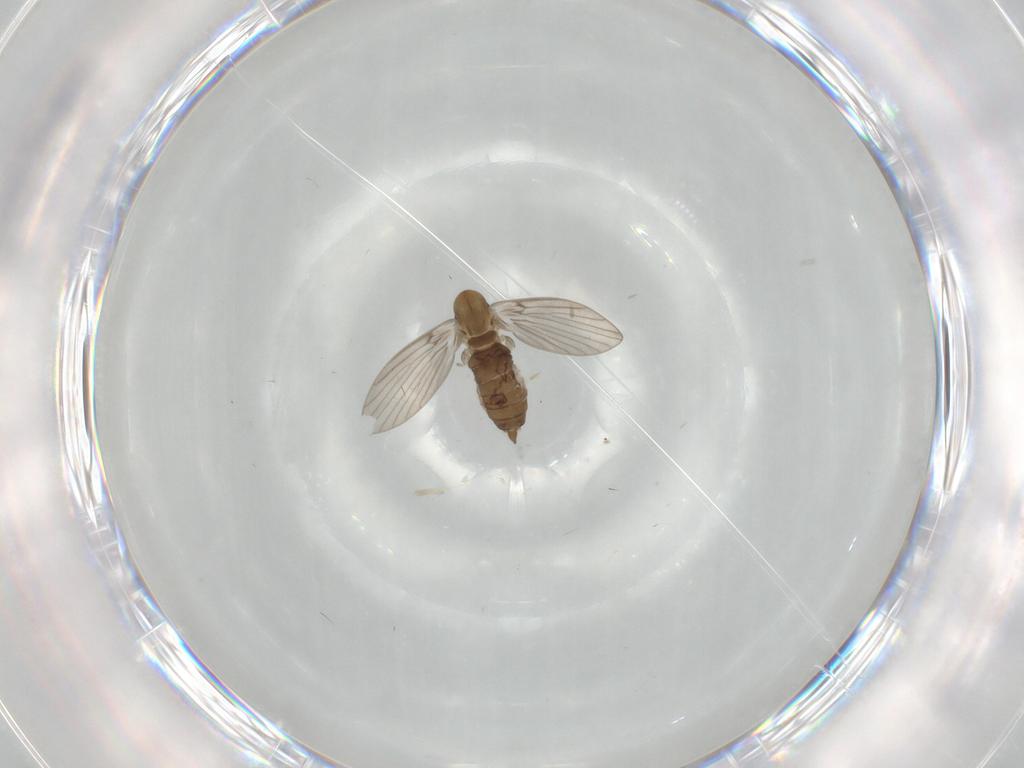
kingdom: Animalia
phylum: Arthropoda
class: Insecta
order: Diptera
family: Psychodidae
